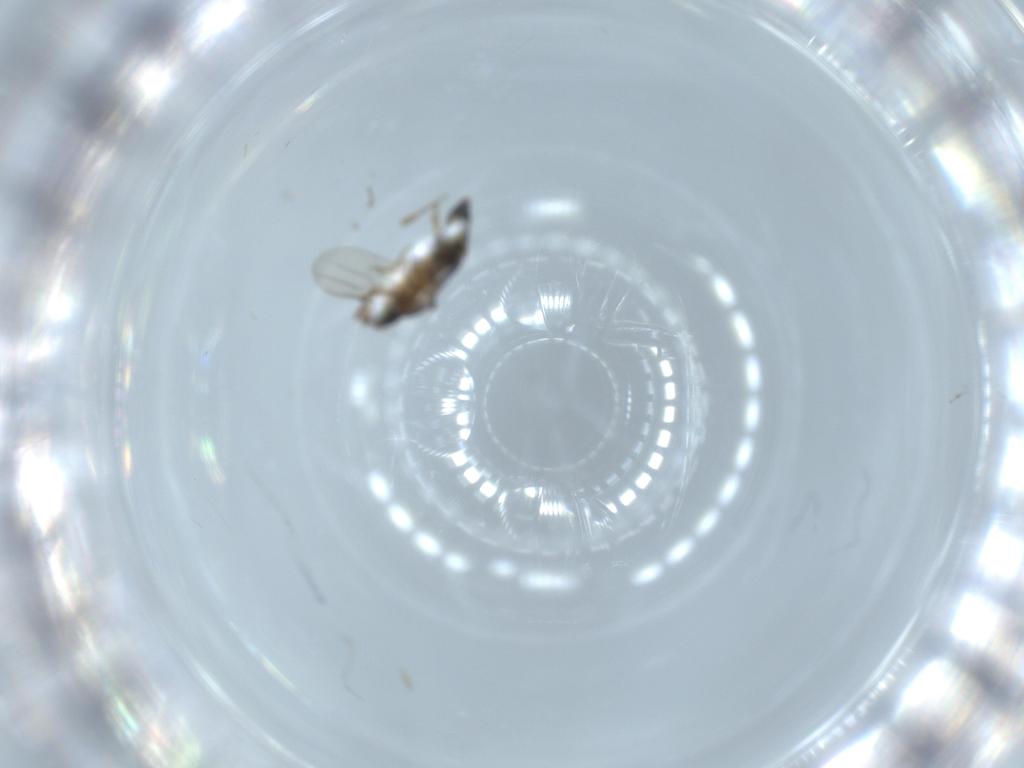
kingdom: Animalia
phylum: Arthropoda
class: Insecta
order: Diptera
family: Phoridae
